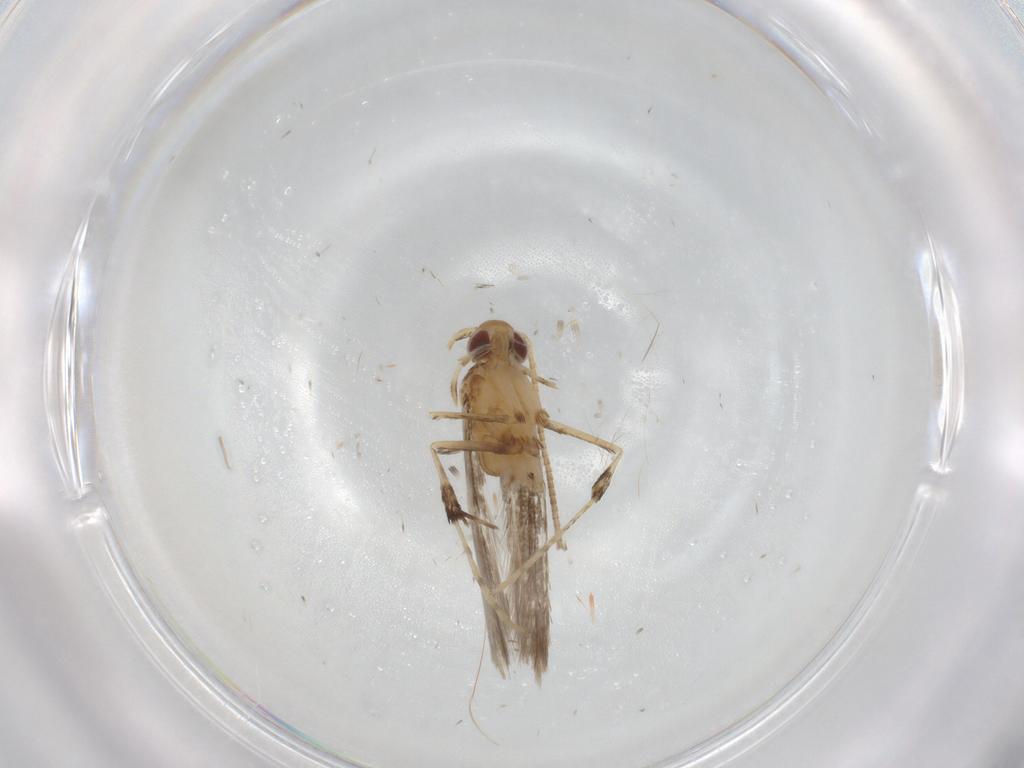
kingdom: Animalia
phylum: Arthropoda
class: Insecta
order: Lepidoptera
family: Gracillariidae
